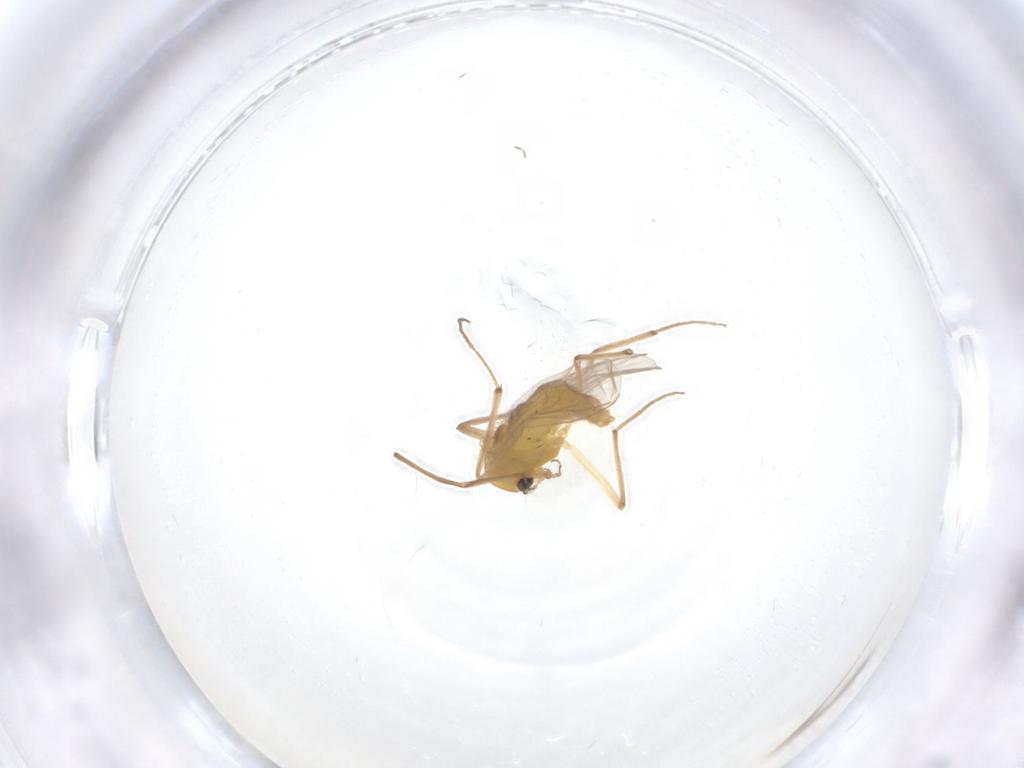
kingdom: Animalia
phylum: Arthropoda
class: Insecta
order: Diptera
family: Chironomidae
